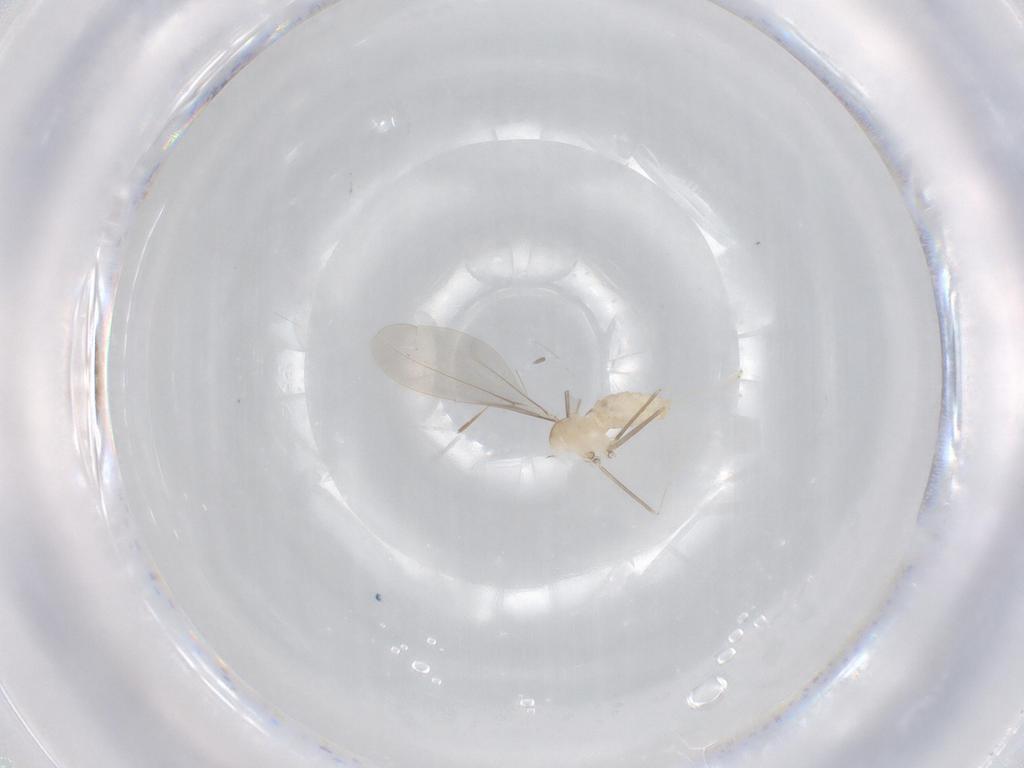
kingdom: Animalia
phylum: Arthropoda
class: Insecta
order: Diptera
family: Cecidomyiidae
